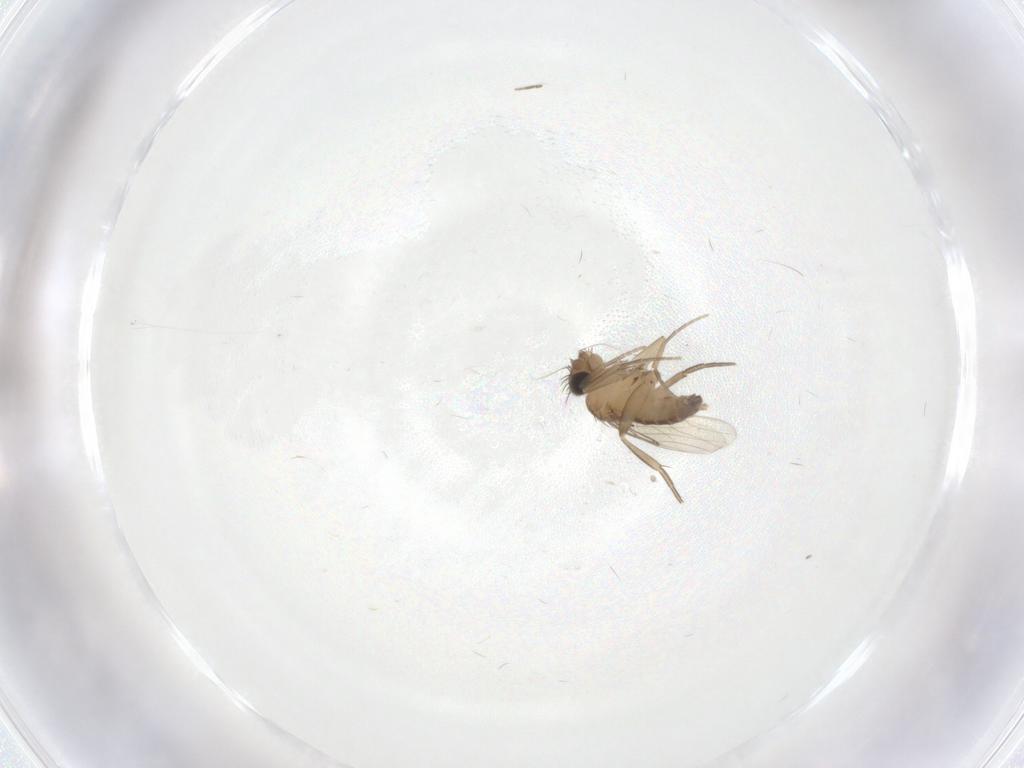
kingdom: Animalia
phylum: Arthropoda
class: Insecta
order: Diptera
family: Phoridae
